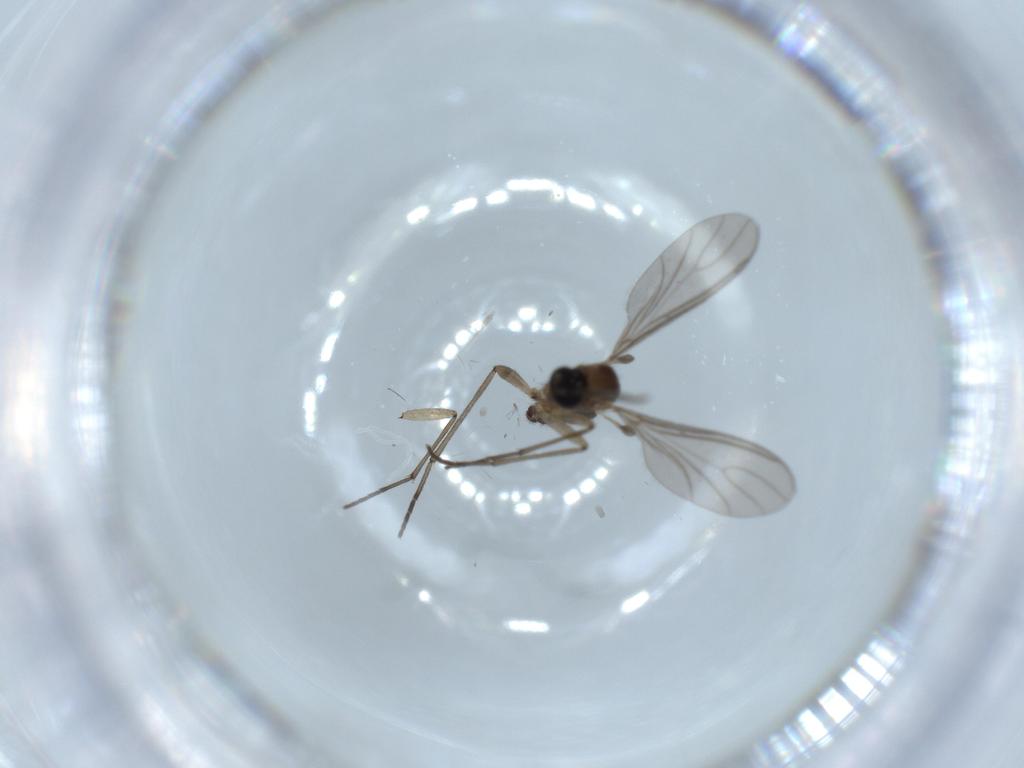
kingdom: Animalia
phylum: Arthropoda
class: Insecta
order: Diptera
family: Sciaridae
